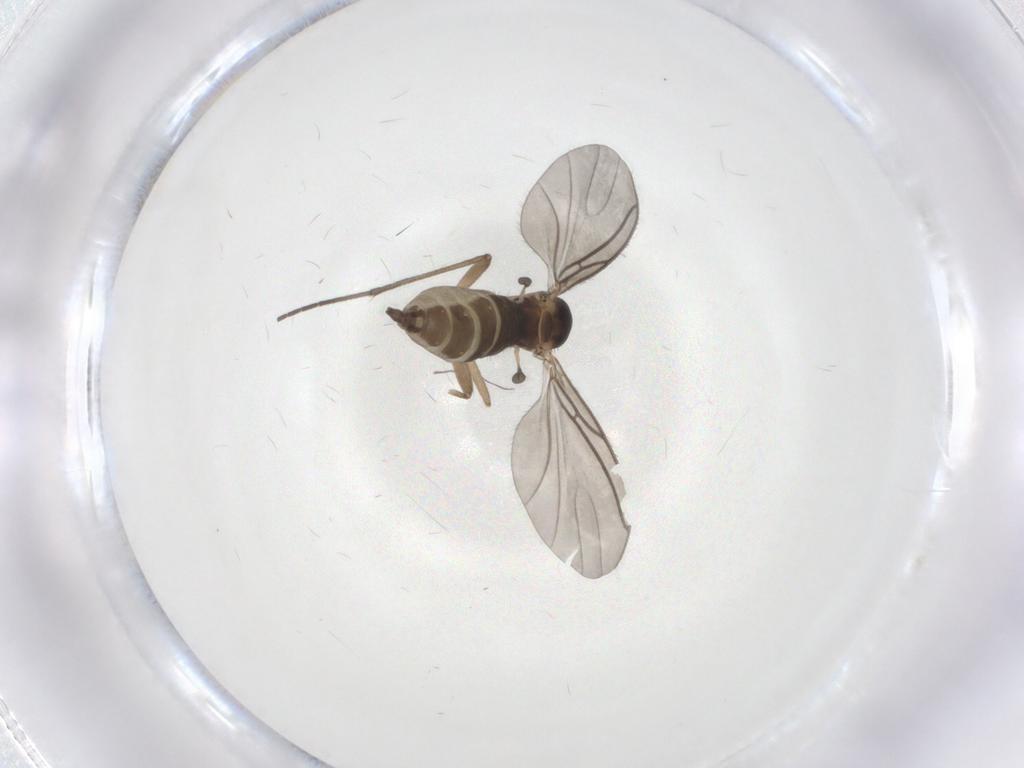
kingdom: Animalia
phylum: Arthropoda
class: Insecta
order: Diptera
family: Sciaridae
